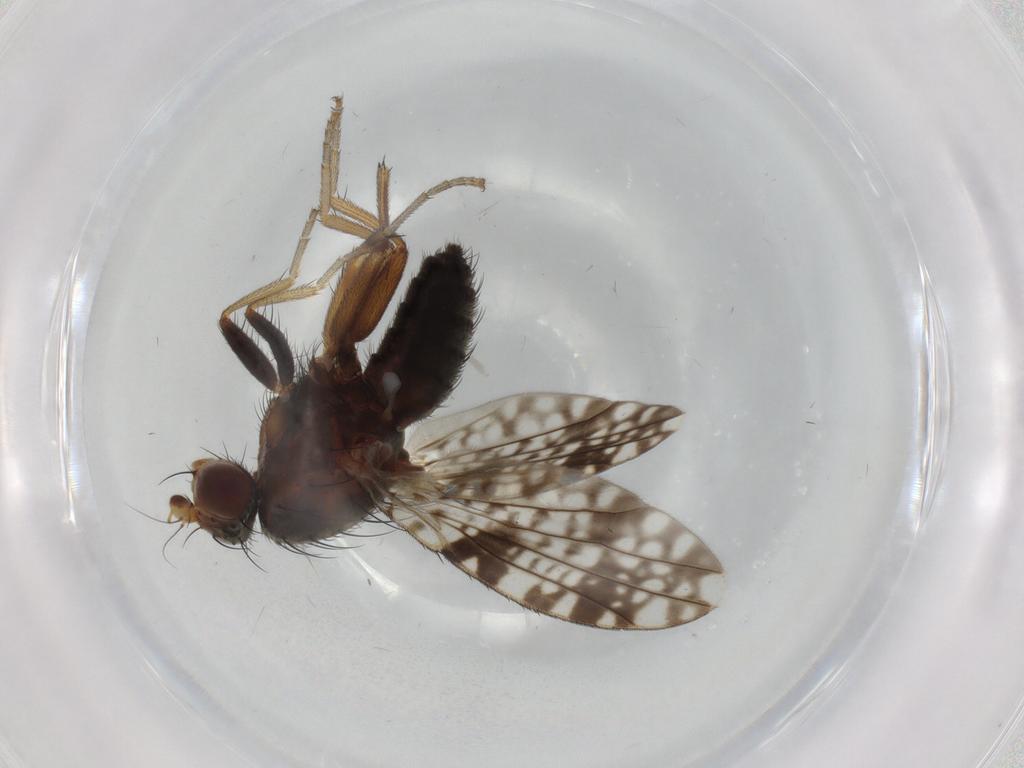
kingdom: Animalia
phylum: Arthropoda
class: Insecta
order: Diptera
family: Tephritidae
